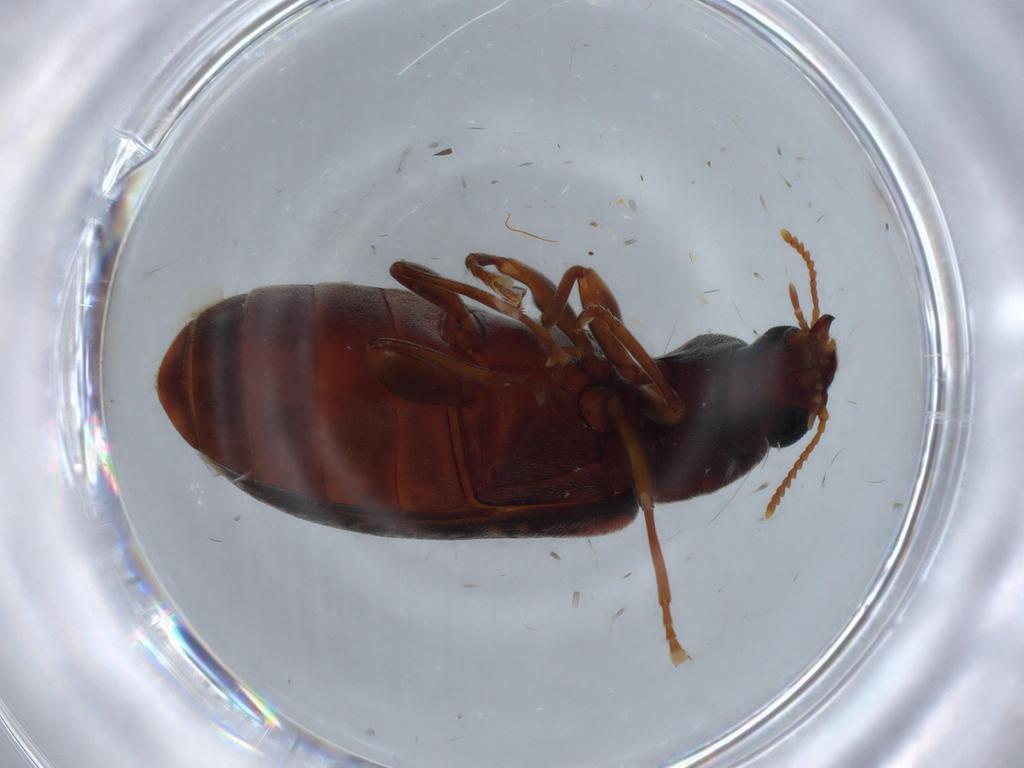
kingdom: Animalia
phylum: Arthropoda
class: Insecta
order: Coleoptera
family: Mycteridae
